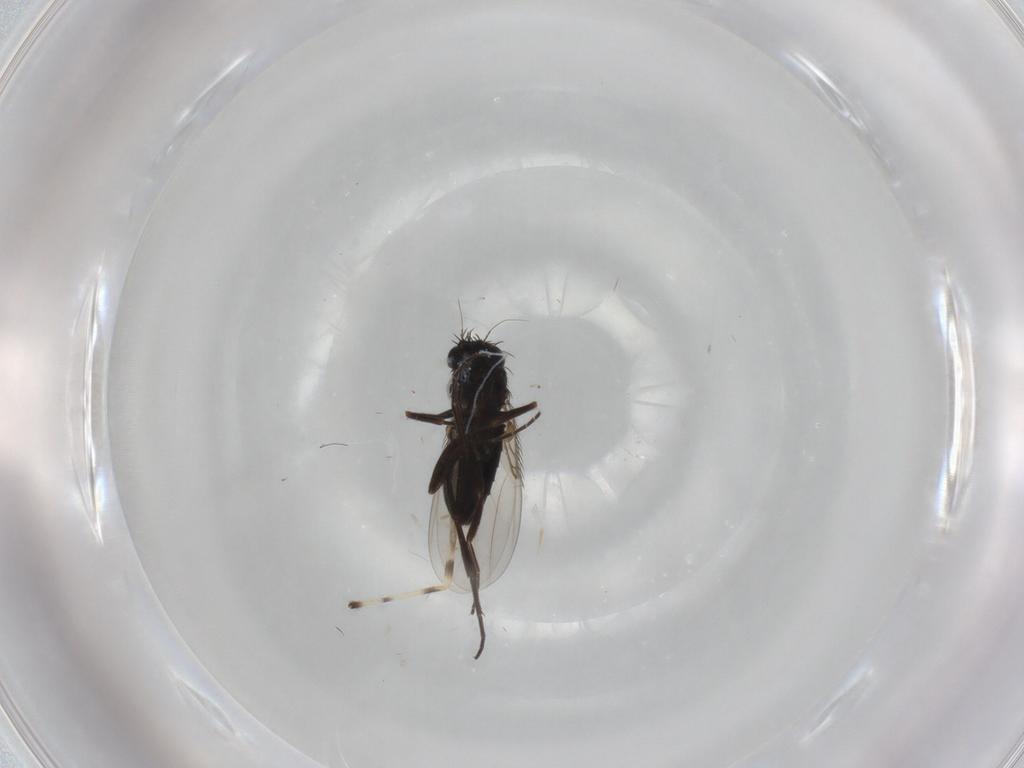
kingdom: Animalia
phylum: Arthropoda
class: Insecta
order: Diptera
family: Phoridae
